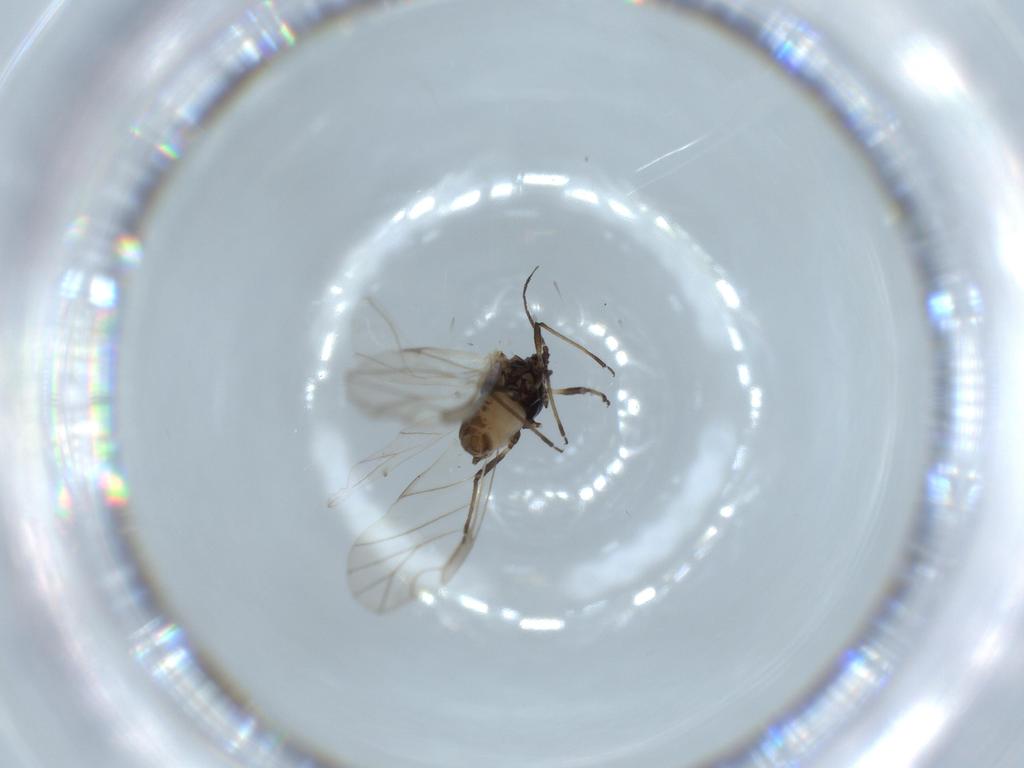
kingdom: Animalia
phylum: Arthropoda
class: Insecta
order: Hemiptera
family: Aphididae
